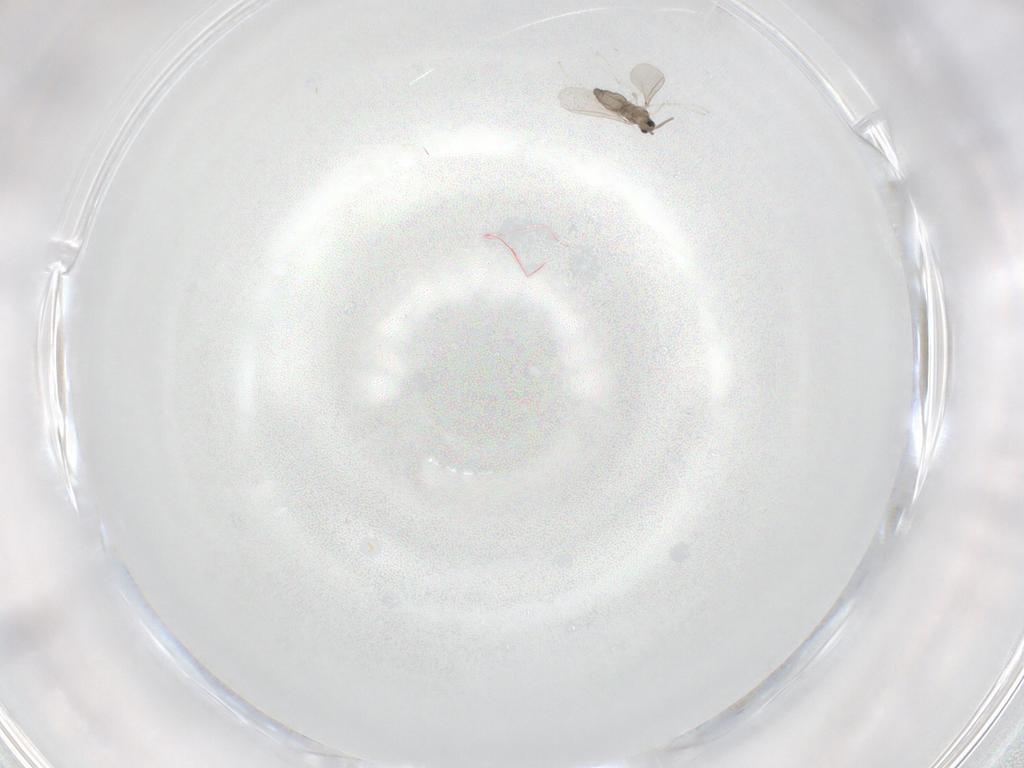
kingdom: Animalia
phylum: Arthropoda
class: Insecta
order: Diptera
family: Cecidomyiidae
